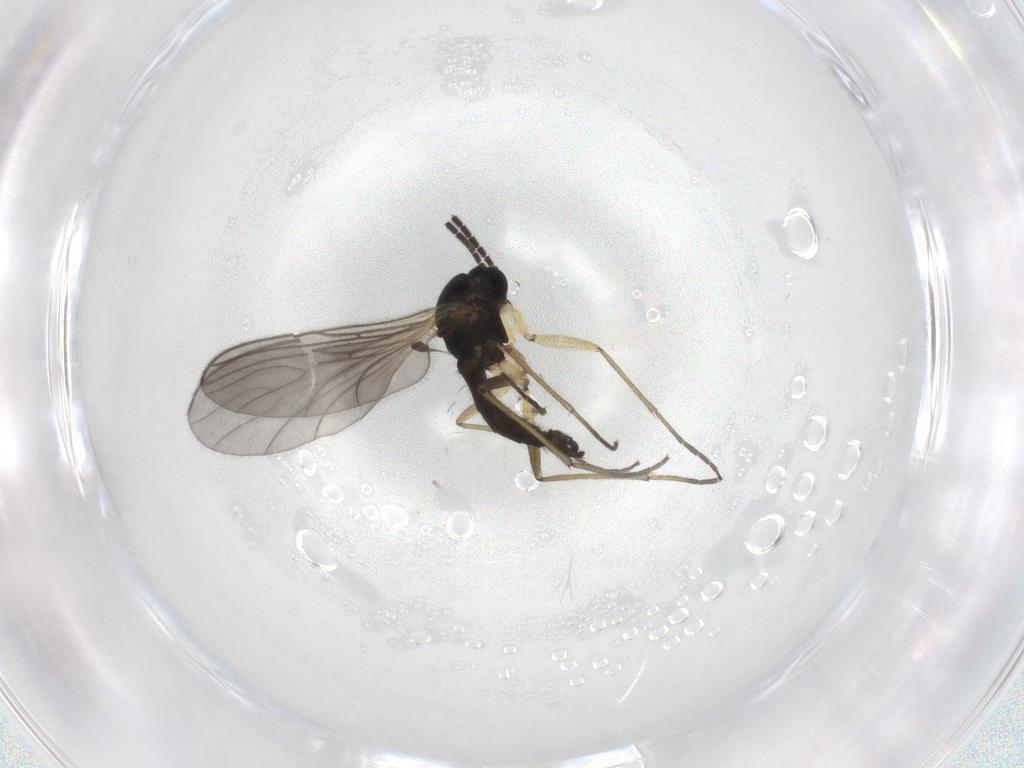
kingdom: Animalia
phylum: Arthropoda
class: Insecta
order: Diptera
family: Sciaridae
